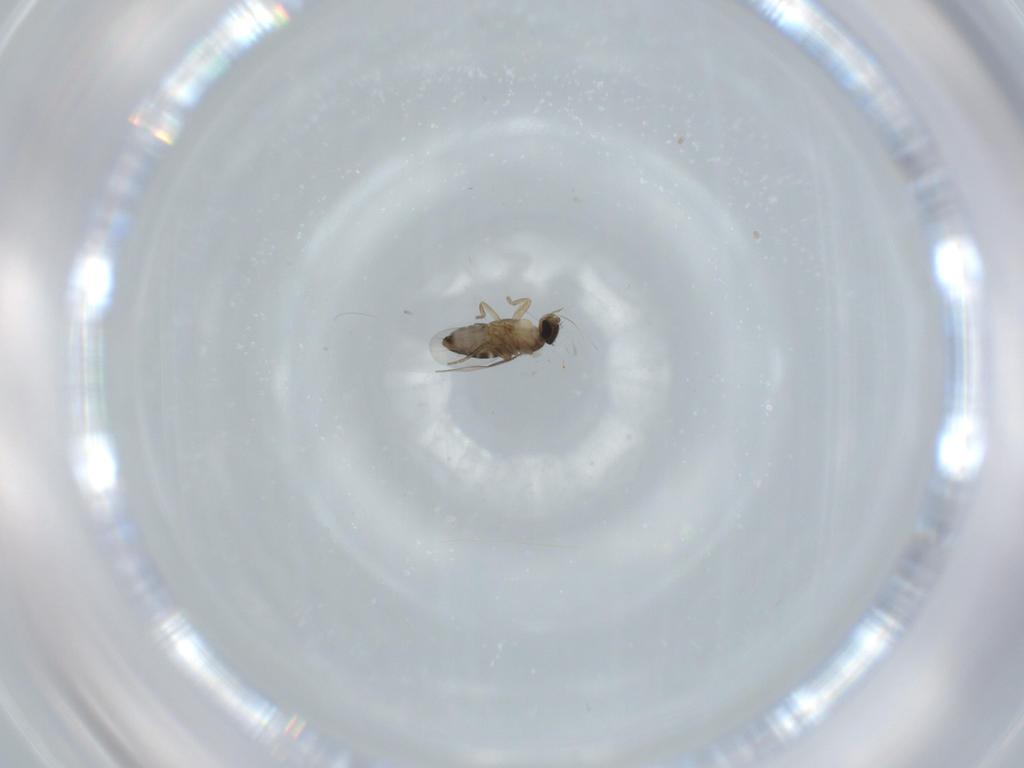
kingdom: Animalia
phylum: Arthropoda
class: Insecta
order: Diptera
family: Phoridae
